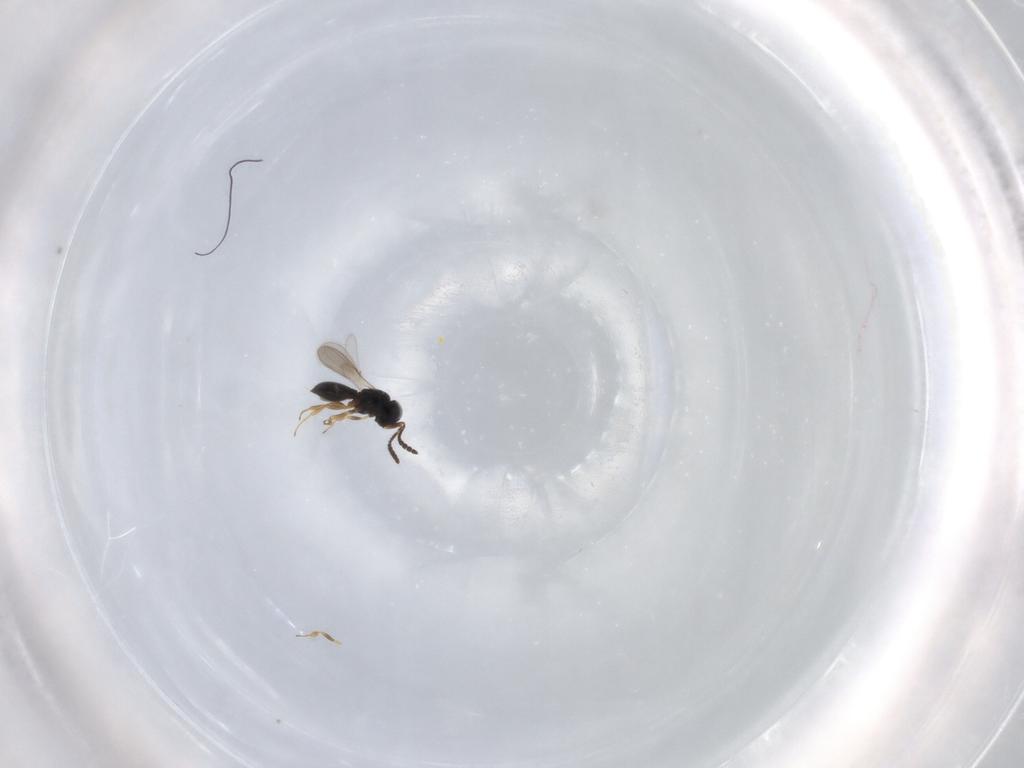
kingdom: Animalia
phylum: Arthropoda
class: Insecta
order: Hymenoptera
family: Scelionidae
